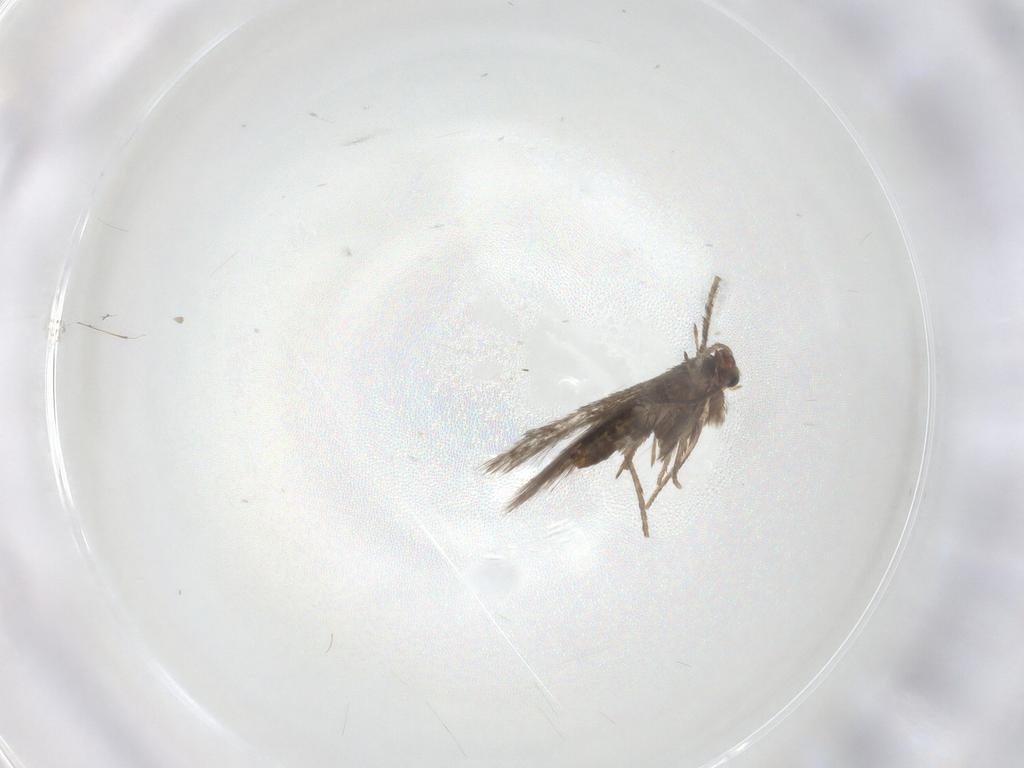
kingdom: Animalia
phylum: Arthropoda
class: Insecta
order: Lepidoptera
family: Nepticulidae
